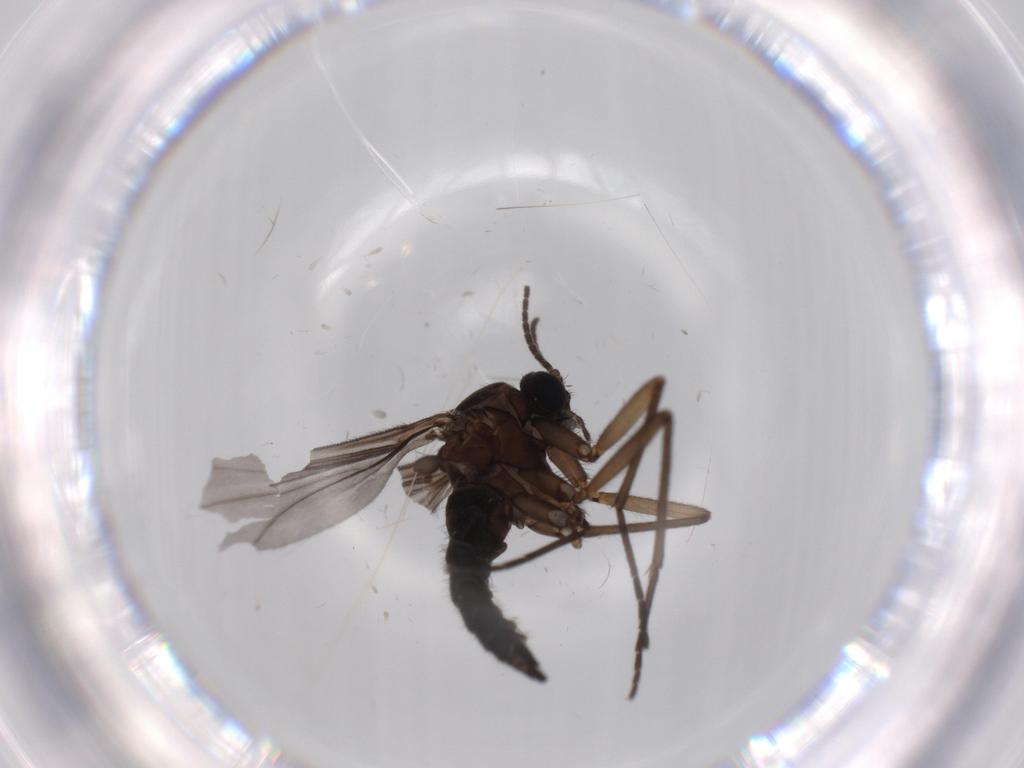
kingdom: Animalia
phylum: Arthropoda
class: Insecta
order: Diptera
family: Sciaridae
